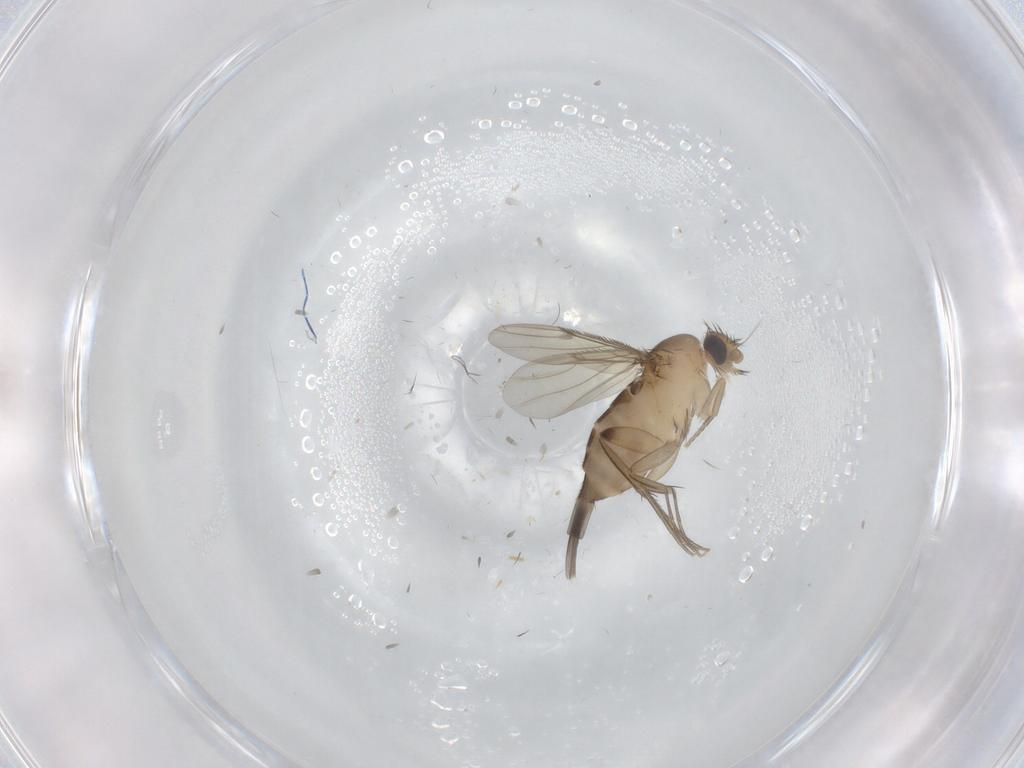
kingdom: Animalia
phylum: Arthropoda
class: Insecta
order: Diptera
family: Phoridae
